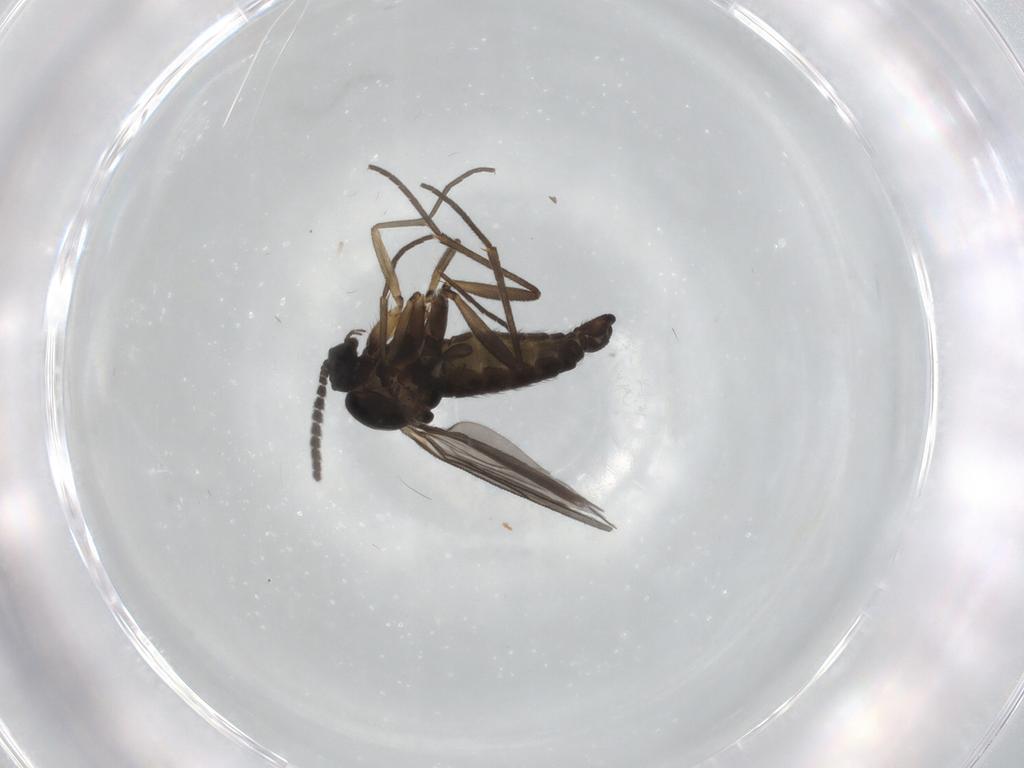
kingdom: Animalia
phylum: Arthropoda
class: Insecta
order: Diptera
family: Sciaridae
